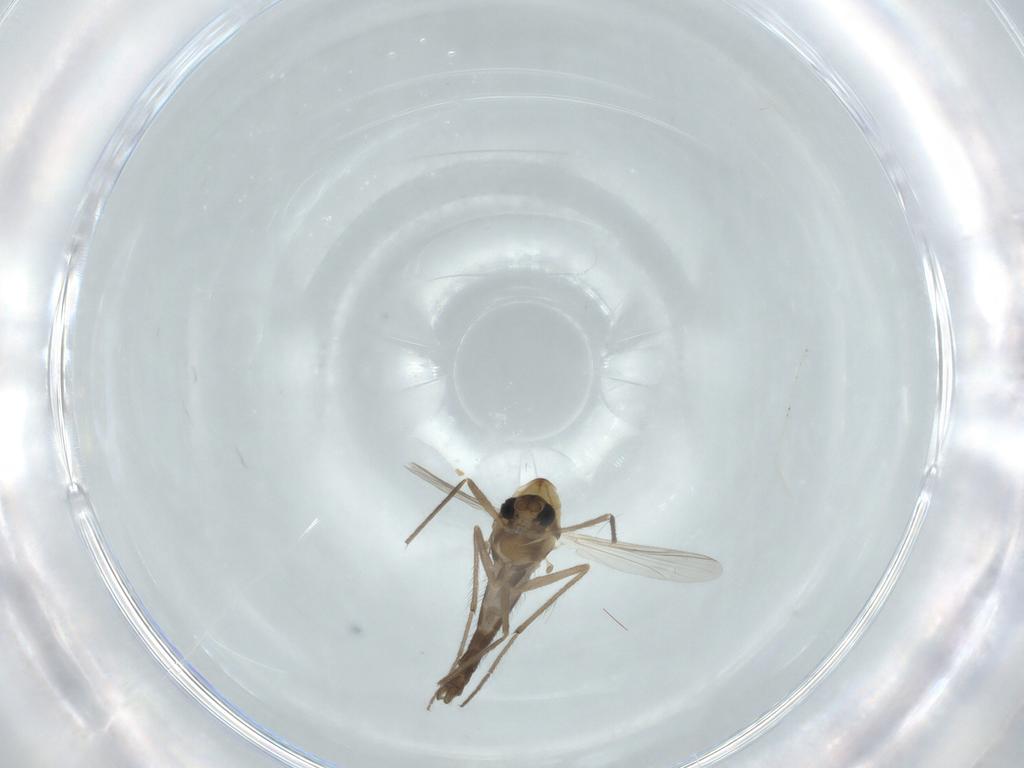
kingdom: Animalia
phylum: Arthropoda
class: Insecta
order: Diptera
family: Chironomidae
